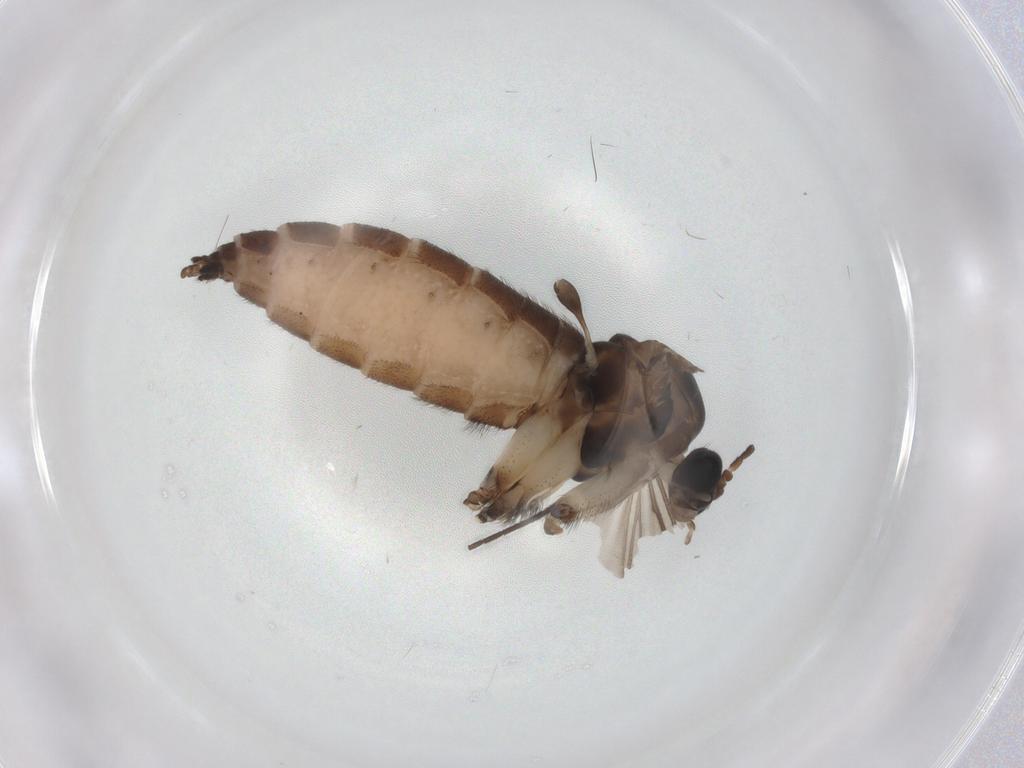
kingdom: Animalia
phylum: Arthropoda
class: Insecta
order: Diptera
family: Sciaridae
